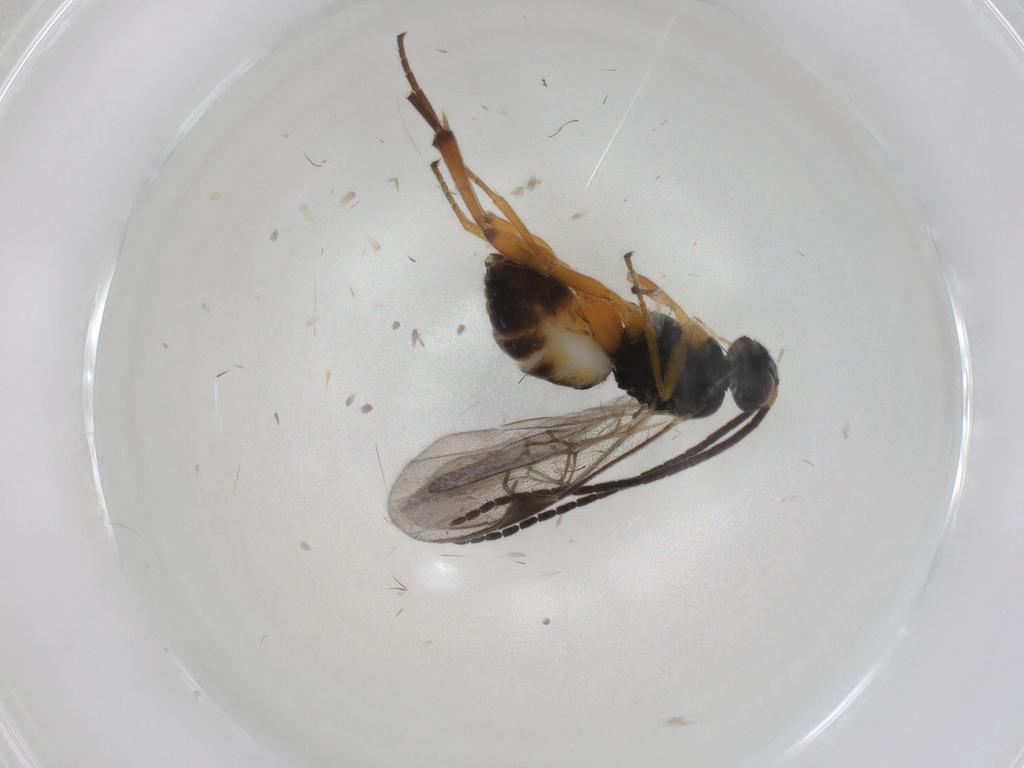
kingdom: Animalia
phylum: Arthropoda
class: Insecta
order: Hymenoptera
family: Braconidae
